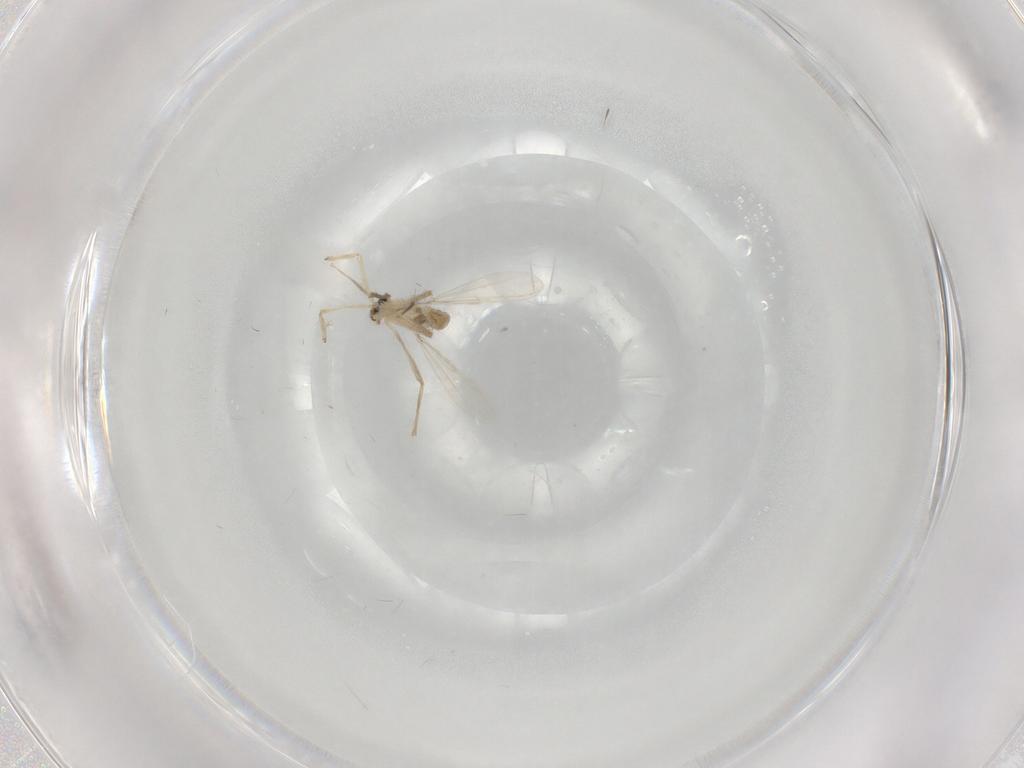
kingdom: Animalia
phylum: Arthropoda
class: Insecta
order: Diptera
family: Chironomidae
